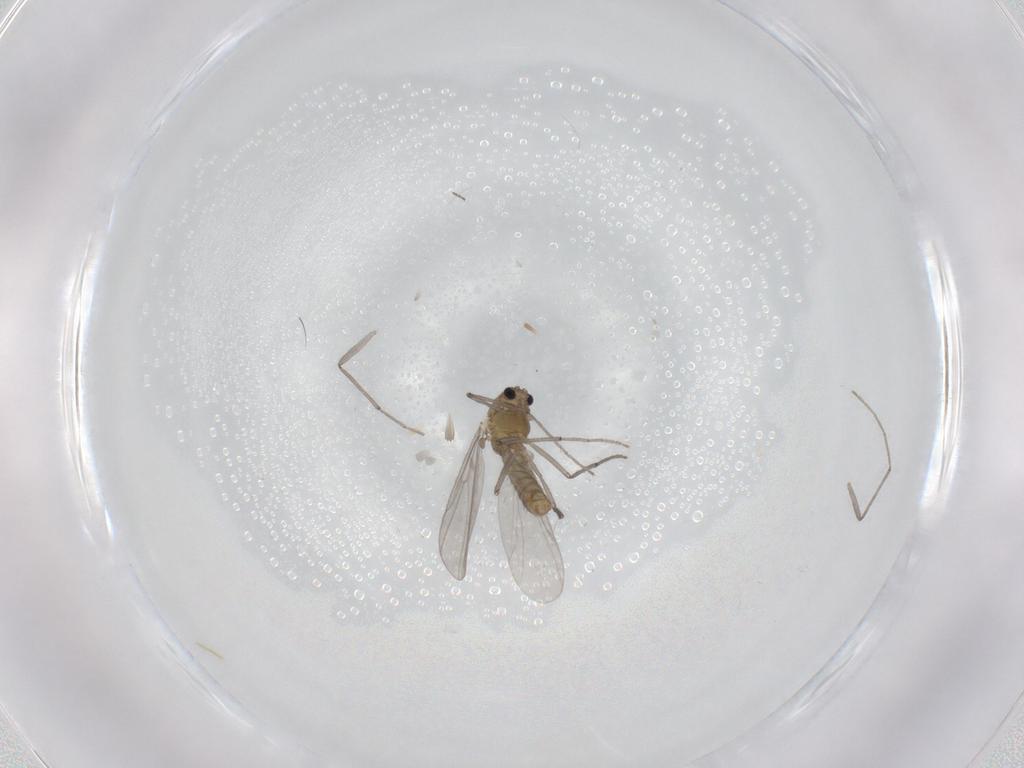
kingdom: Animalia
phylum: Arthropoda
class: Insecta
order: Diptera
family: Chironomidae
